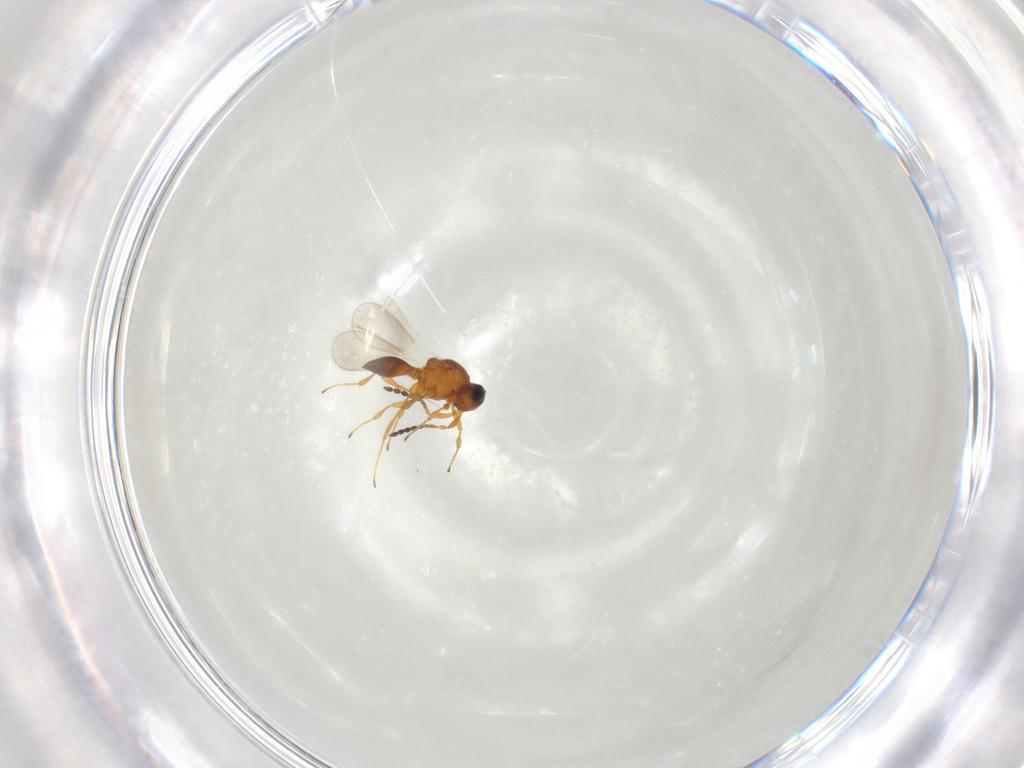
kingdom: Animalia
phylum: Arthropoda
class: Insecta
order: Hymenoptera
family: Platygastridae
